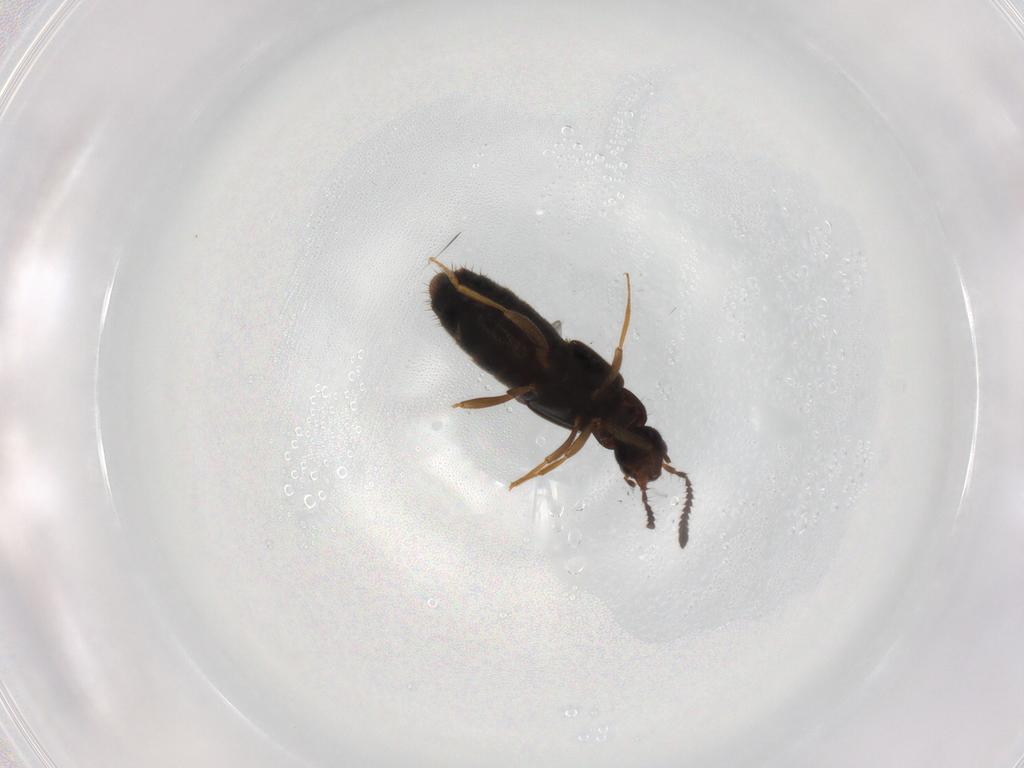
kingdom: Animalia
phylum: Arthropoda
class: Insecta
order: Coleoptera
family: Staphylinidae
